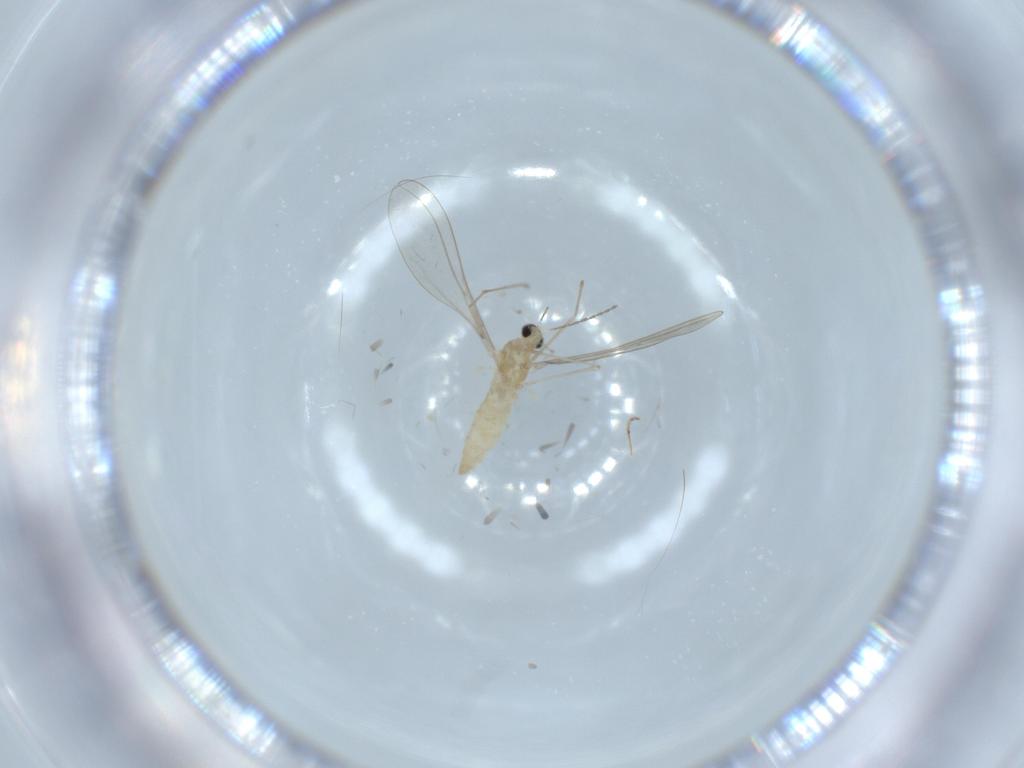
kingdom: Animalia
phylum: Arthropoda
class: Insecta
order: Diptera
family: Cecidomyiidae
